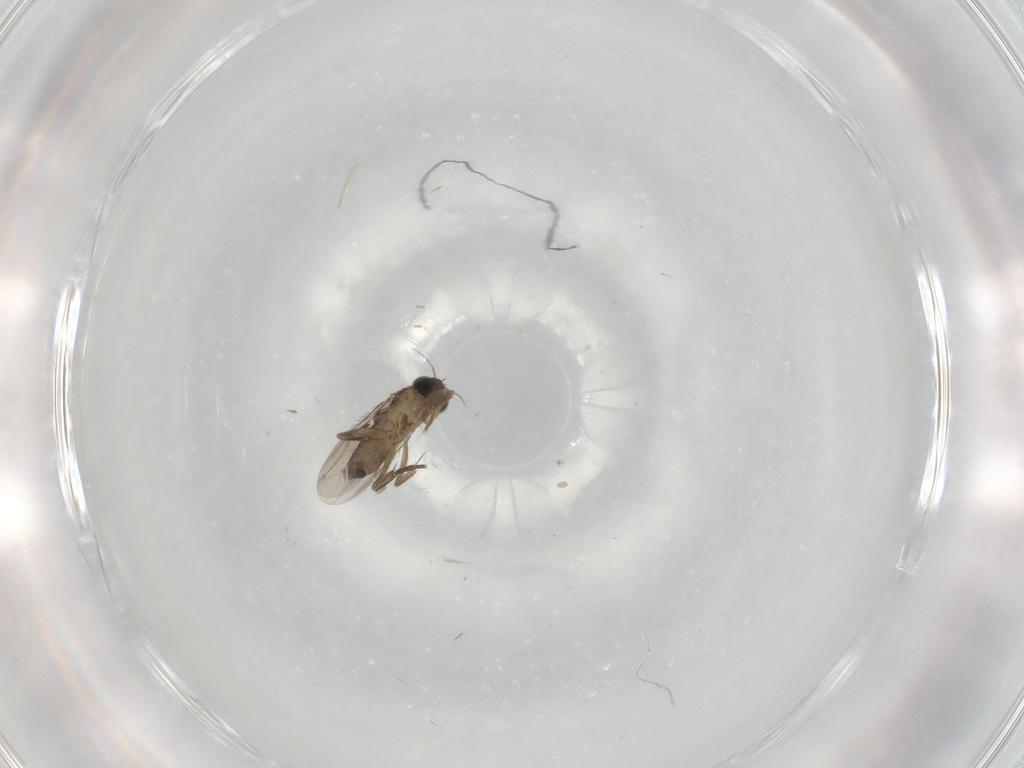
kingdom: Animalia
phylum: Arthropoda
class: Insecta
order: Diptera
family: Phoridae
